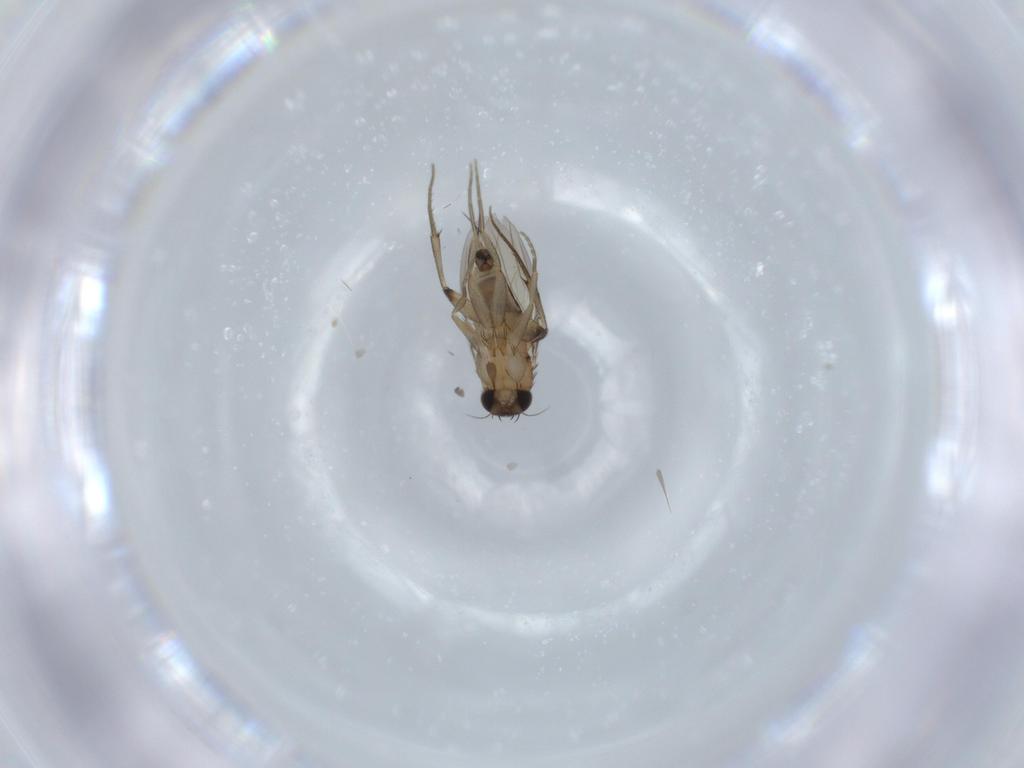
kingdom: Animalia
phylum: Arthropoda
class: Insecta
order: Diptera
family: Phoridae
